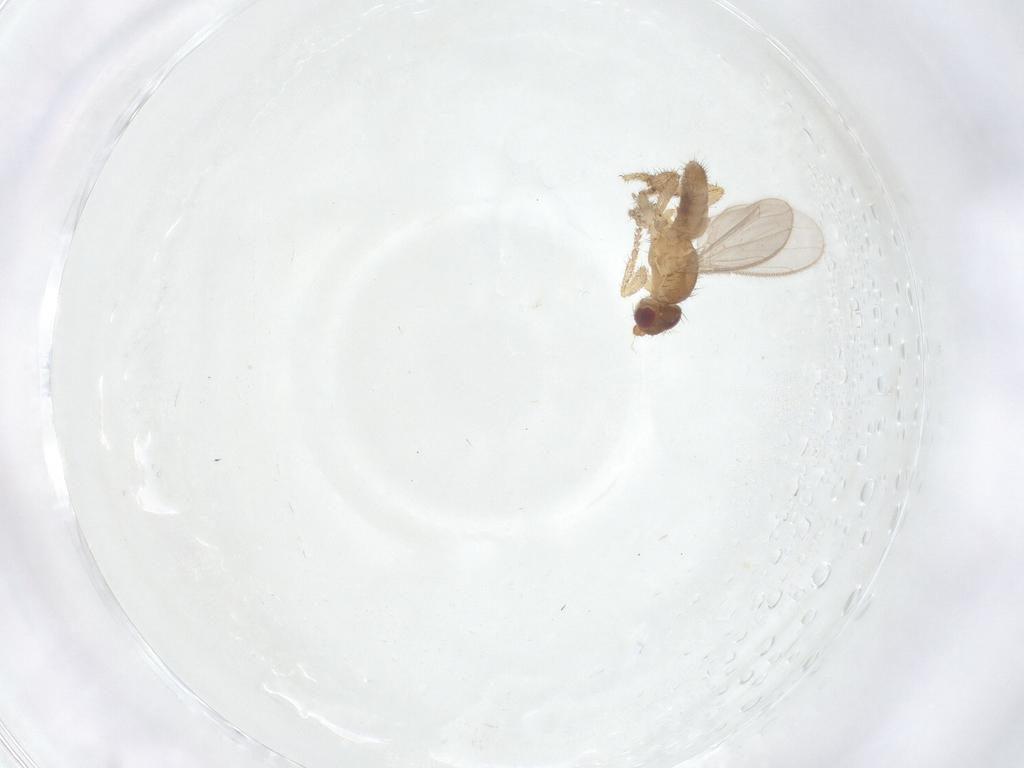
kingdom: Animalia
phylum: Arthropoda
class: Insecta
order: Diptera
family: Sphaeroceridae
